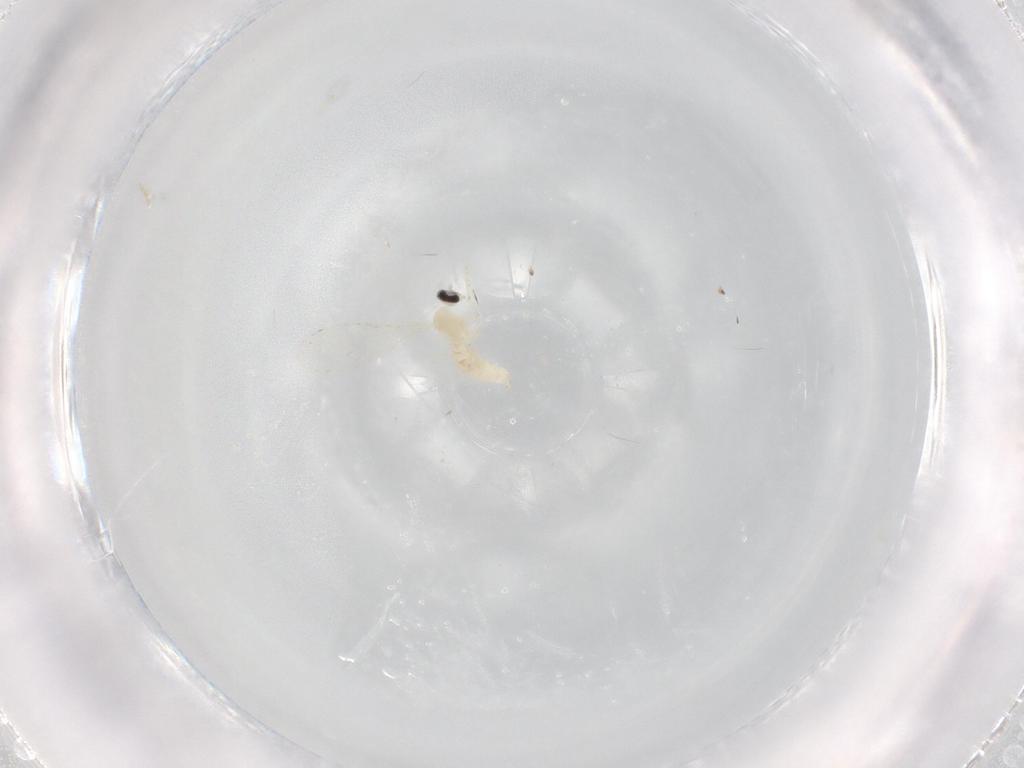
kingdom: Animalia
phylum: Arthropoda
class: Insecta
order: Diptera
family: Cecidomyiidae
